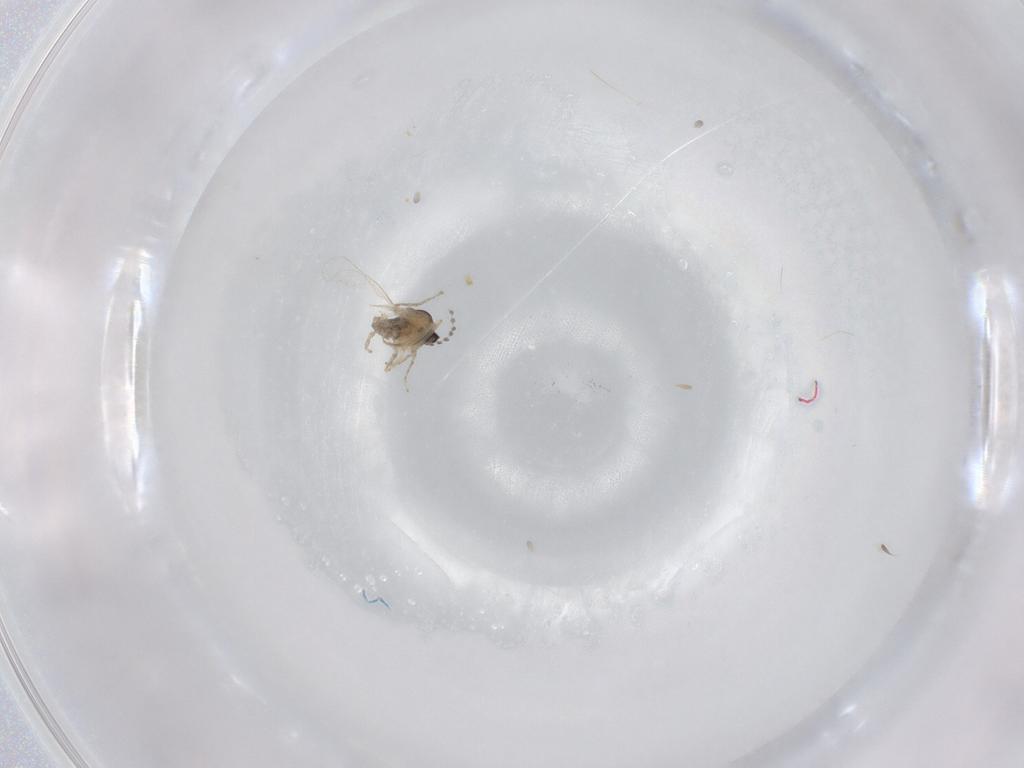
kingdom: Animalia
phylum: Arthropoda
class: Insecta
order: Diptera
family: Cecidomyiidae
